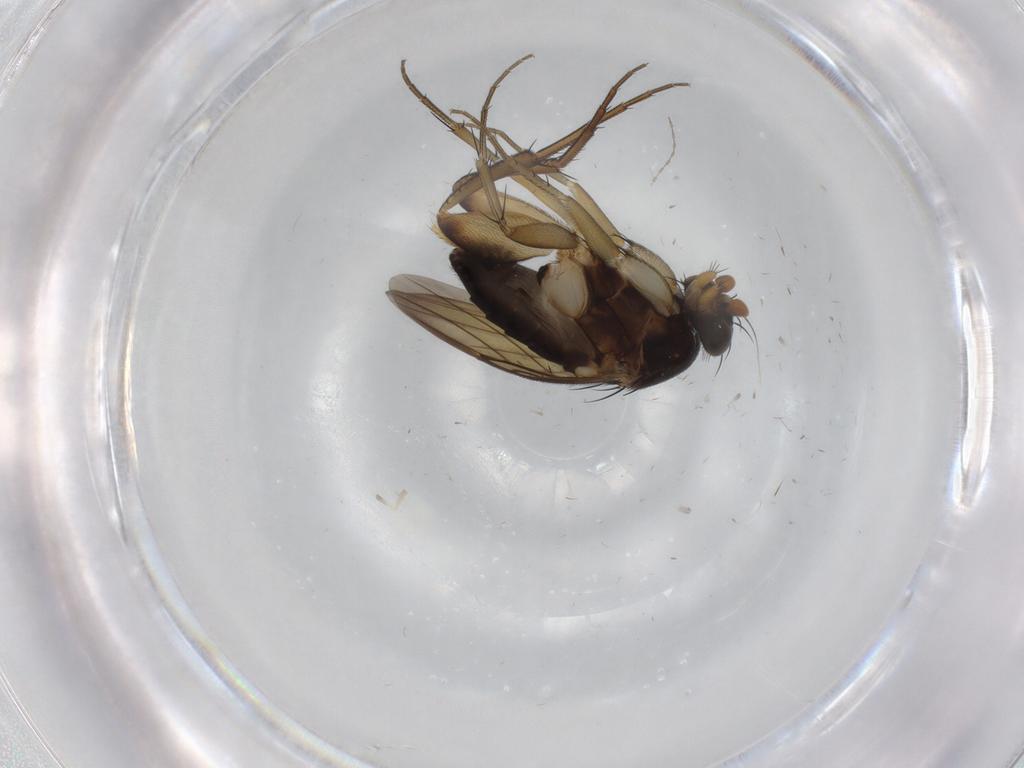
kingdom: Animalia
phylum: Arthropoda
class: Insecta
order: Diptera
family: Phoridae
